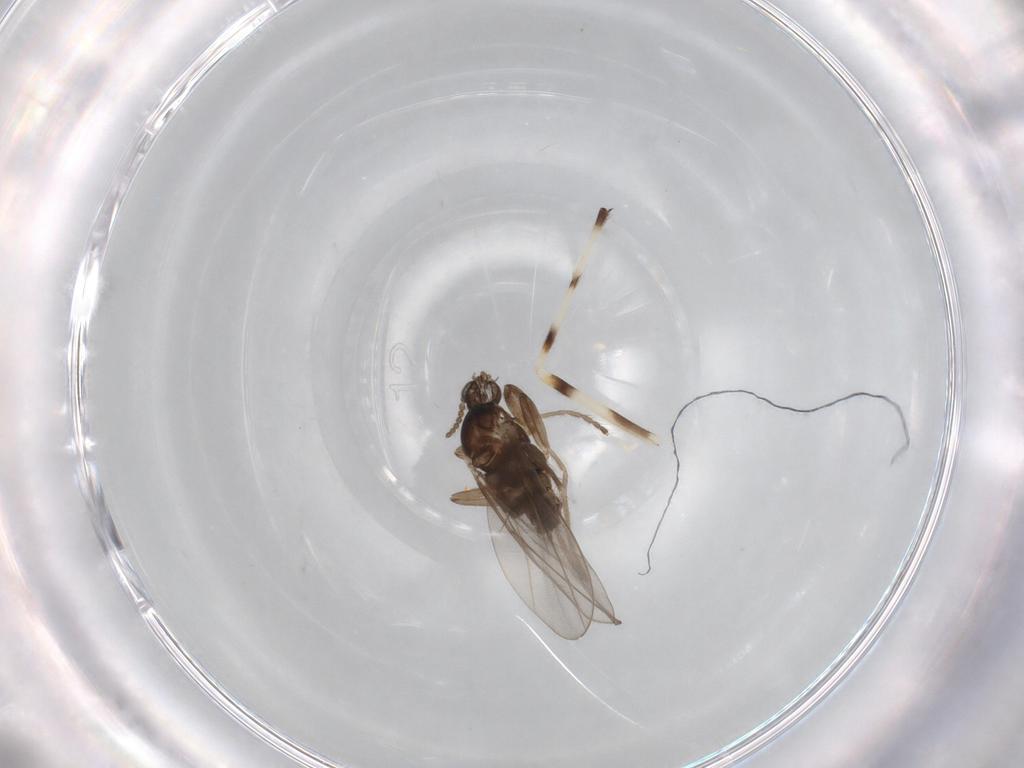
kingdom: Animalia
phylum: Arthropoda
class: Insecta
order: Diptera
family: Cecidomyiidae
